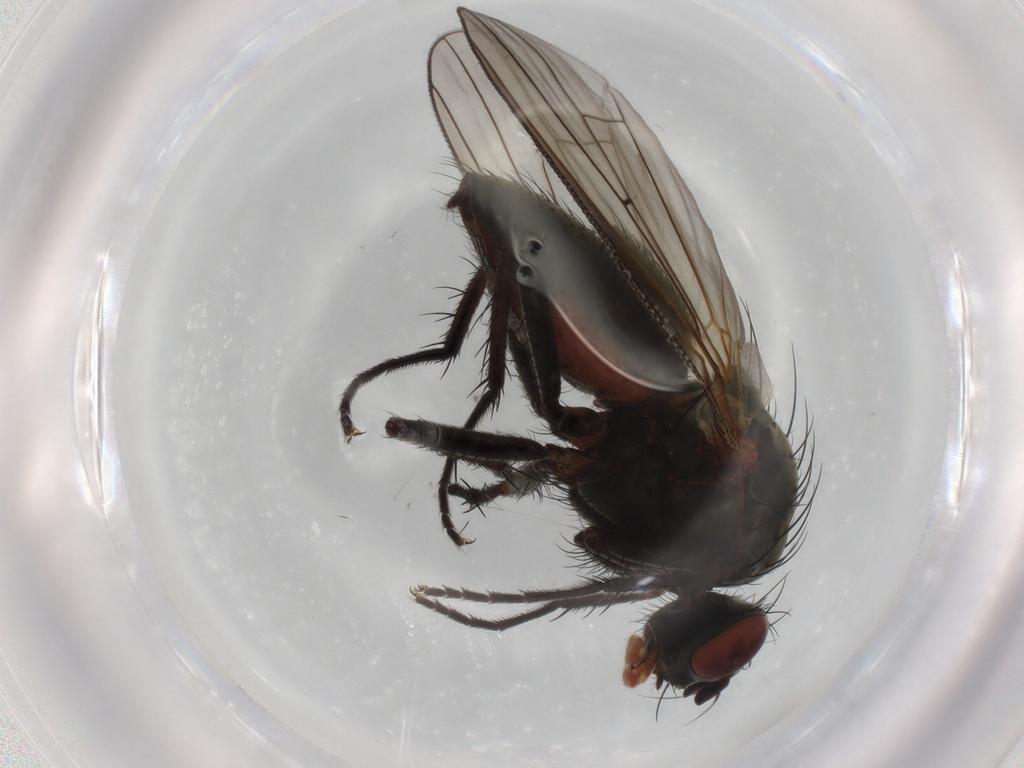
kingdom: Animalia
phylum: Arthropoda
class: Insecta
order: Diptera
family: Anthomyiidae
